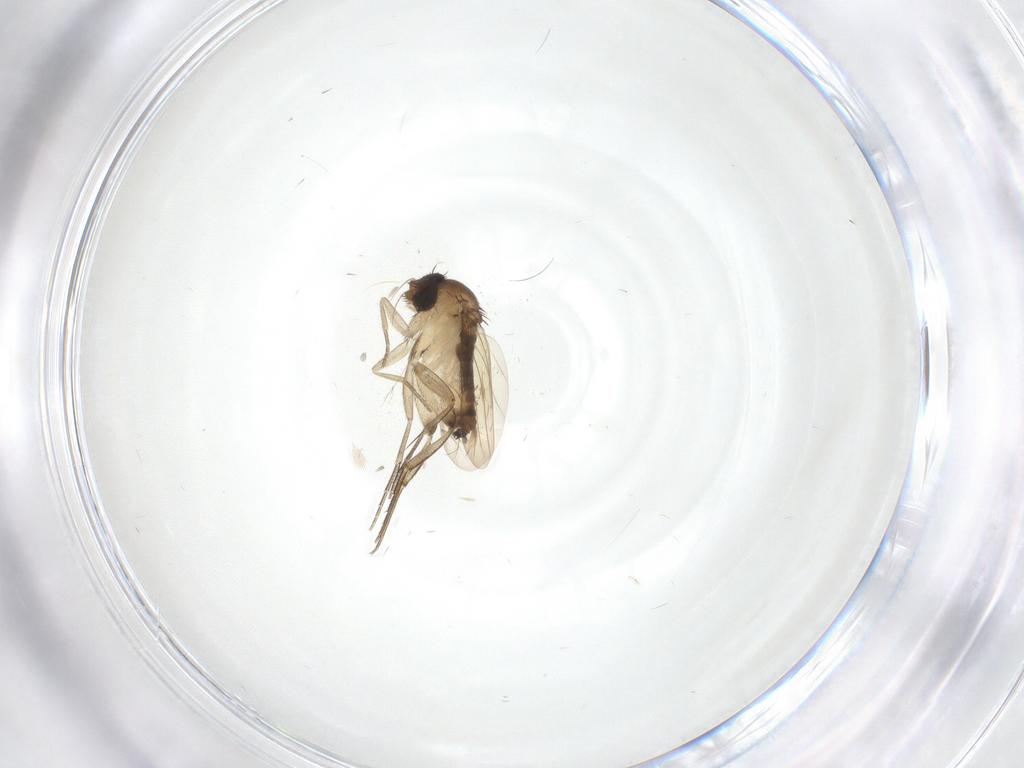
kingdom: Animalia
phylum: Arthropoda
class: Insecta
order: Diptera
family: Phoridae
